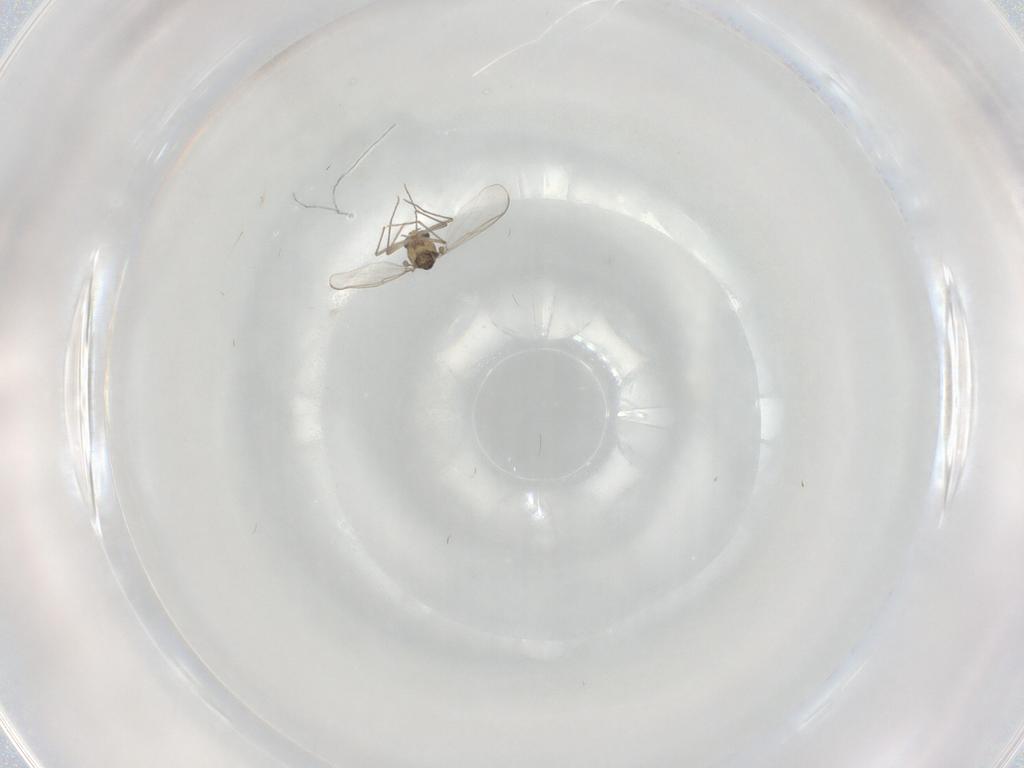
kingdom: Animalia
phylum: Arthropoda
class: Insecta
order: Diptera
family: Chironomidae
